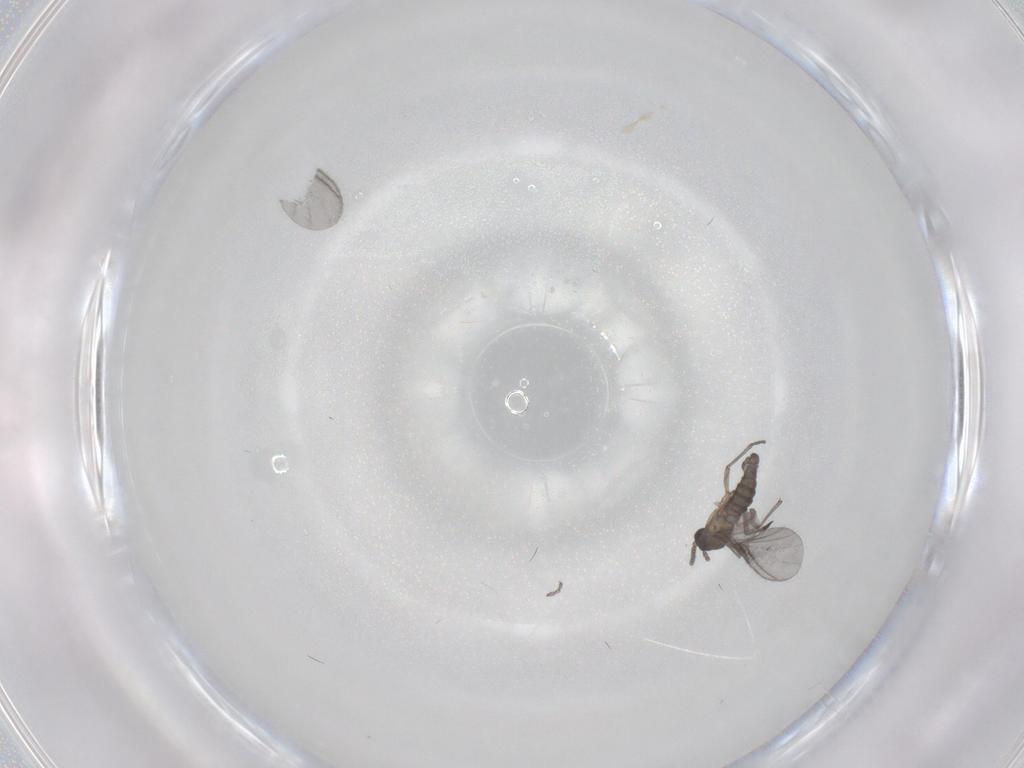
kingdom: Animalia
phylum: Arthropoda
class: Insecta
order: Diptera
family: Sciaridae
